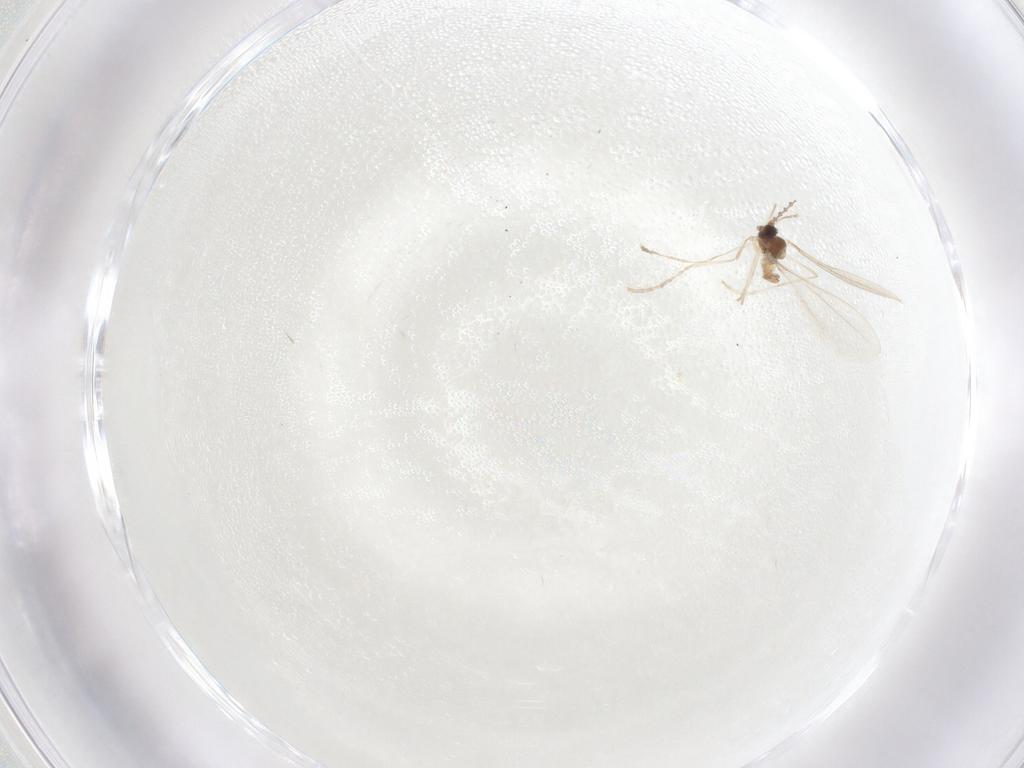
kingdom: Animalia
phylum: Arthropoda
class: Insecta
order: Diptera
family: Cecidomyiidae
